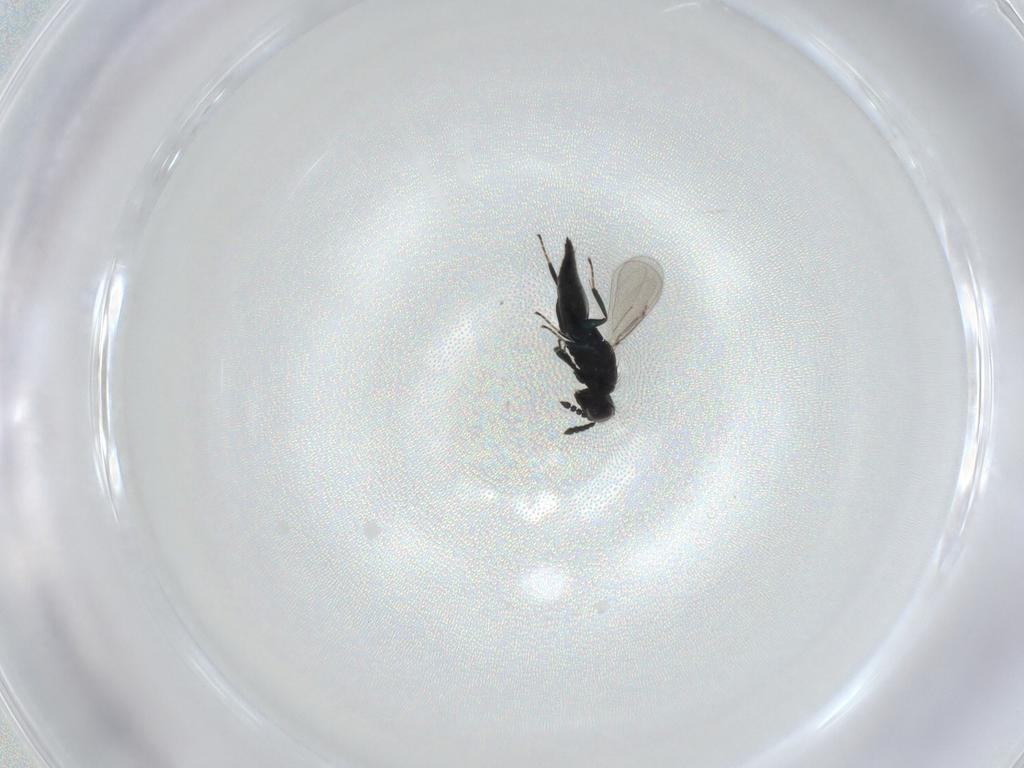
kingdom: Animalia
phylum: Arthropoda
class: Insecta
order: Hymenoptera
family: Eulophidae
